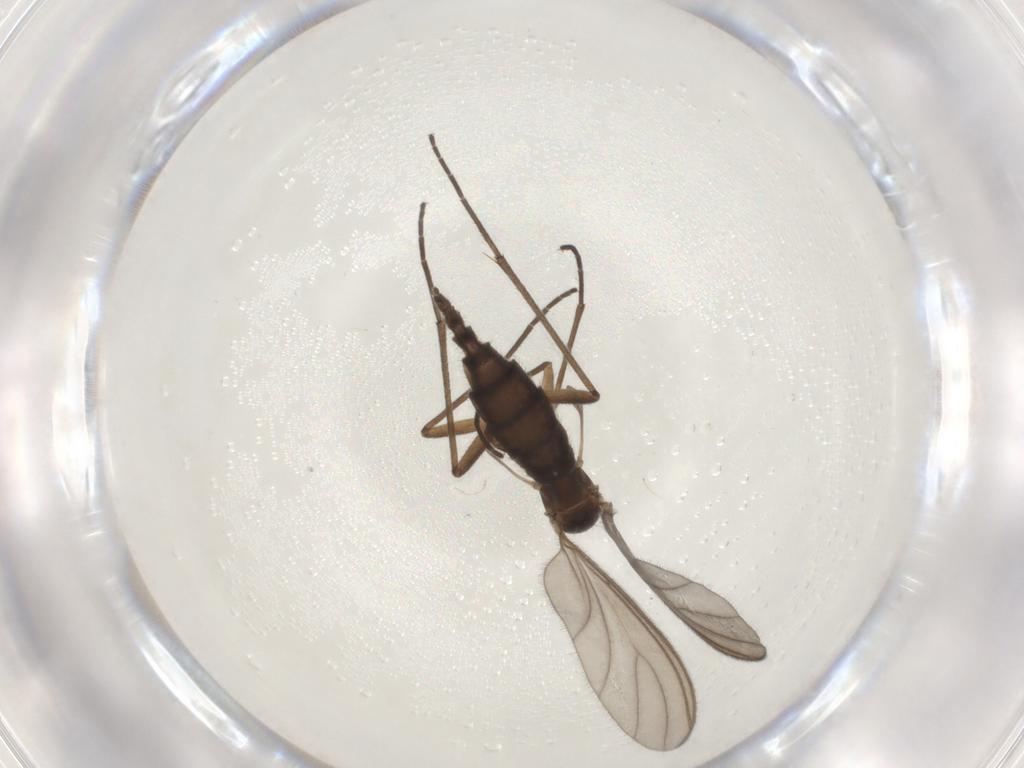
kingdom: Animalia
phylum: Arthropoda
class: Insecta
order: Diptera
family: Sciaridae
